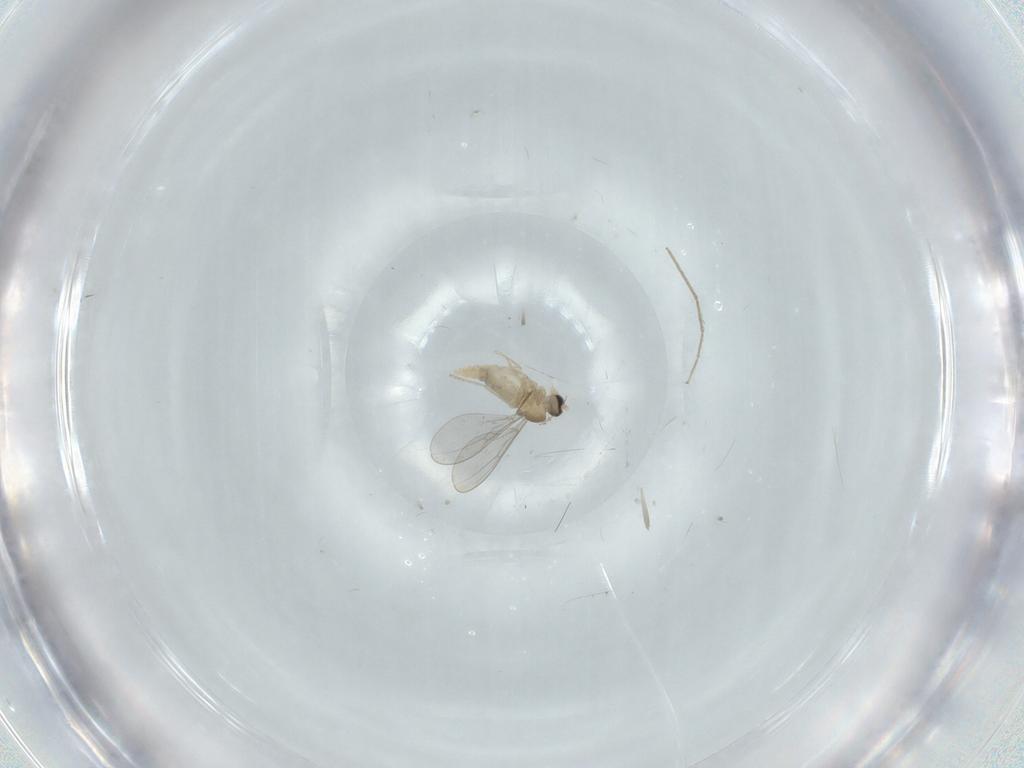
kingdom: Animalia
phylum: Arthropoda
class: Insecta
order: Diptera
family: Cecidomyiidae
